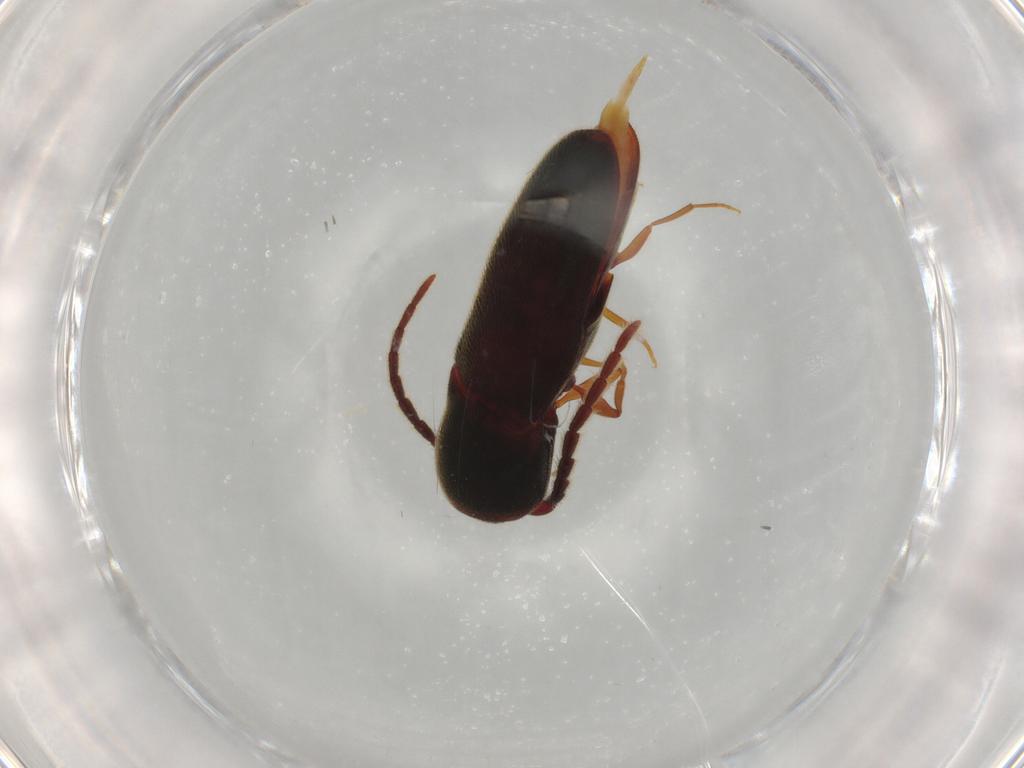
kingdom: Animalia
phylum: Arthropoda
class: Insecta
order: Coleoptera
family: Eucnemidae
